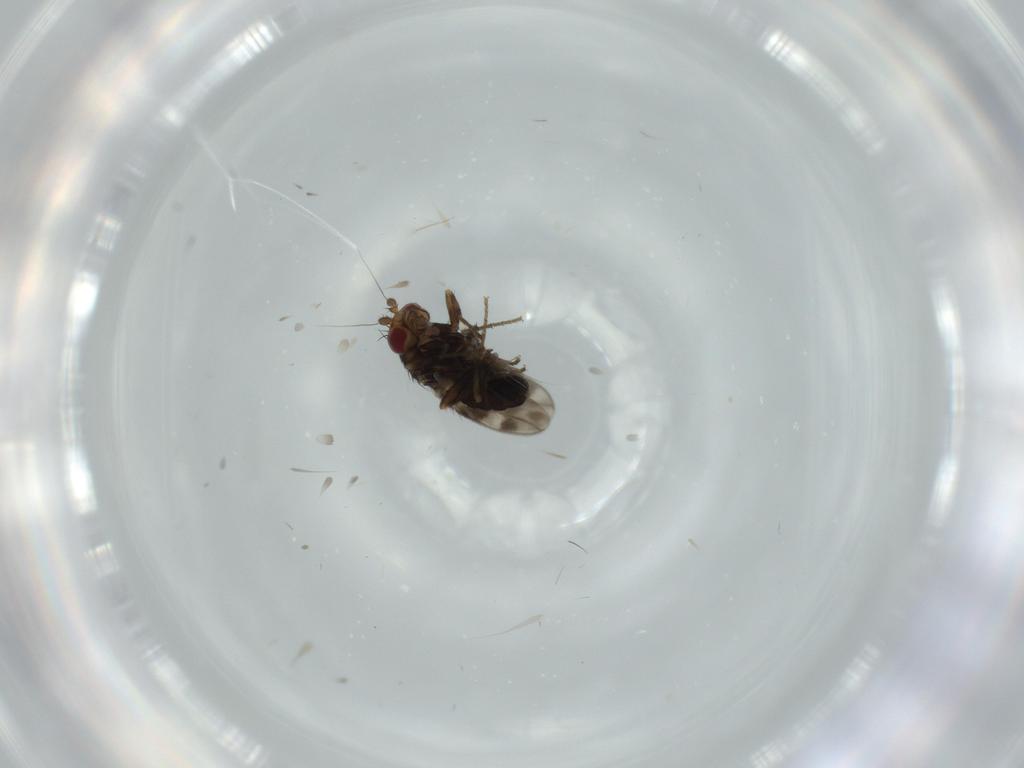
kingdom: Animalia
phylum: Arthropoda
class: Insecta
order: Diptera
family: Sphaeroceridae
